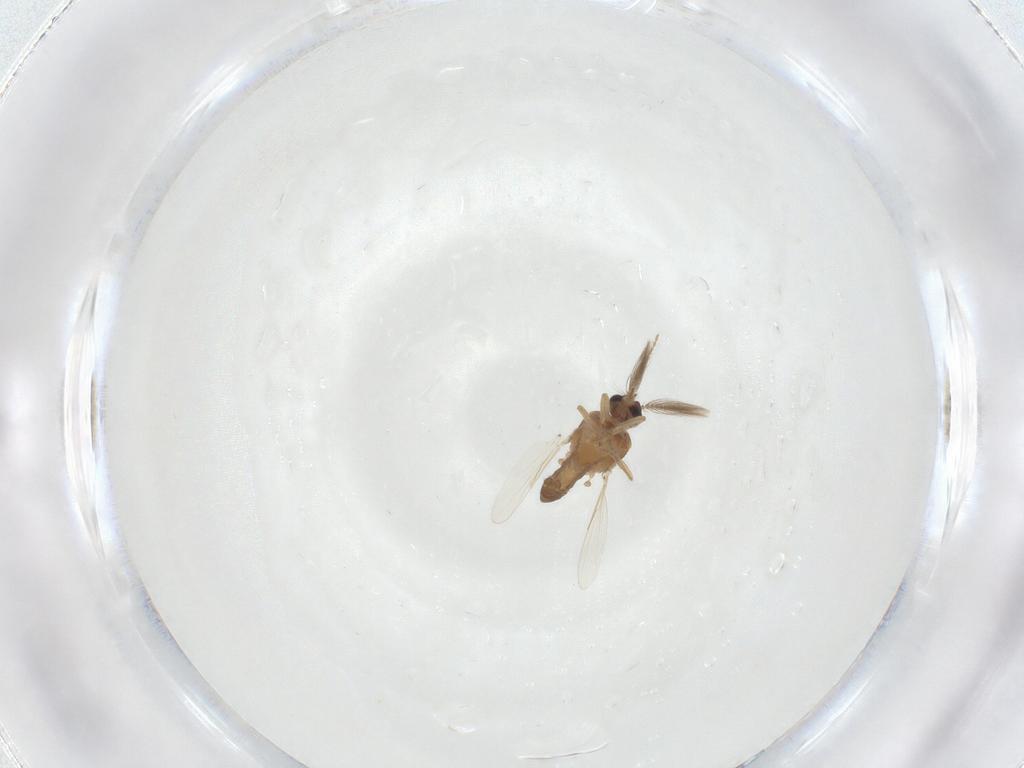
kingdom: Animalia
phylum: Arthropoda
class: Insecta
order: Diptera
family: Ceratopogonidae
